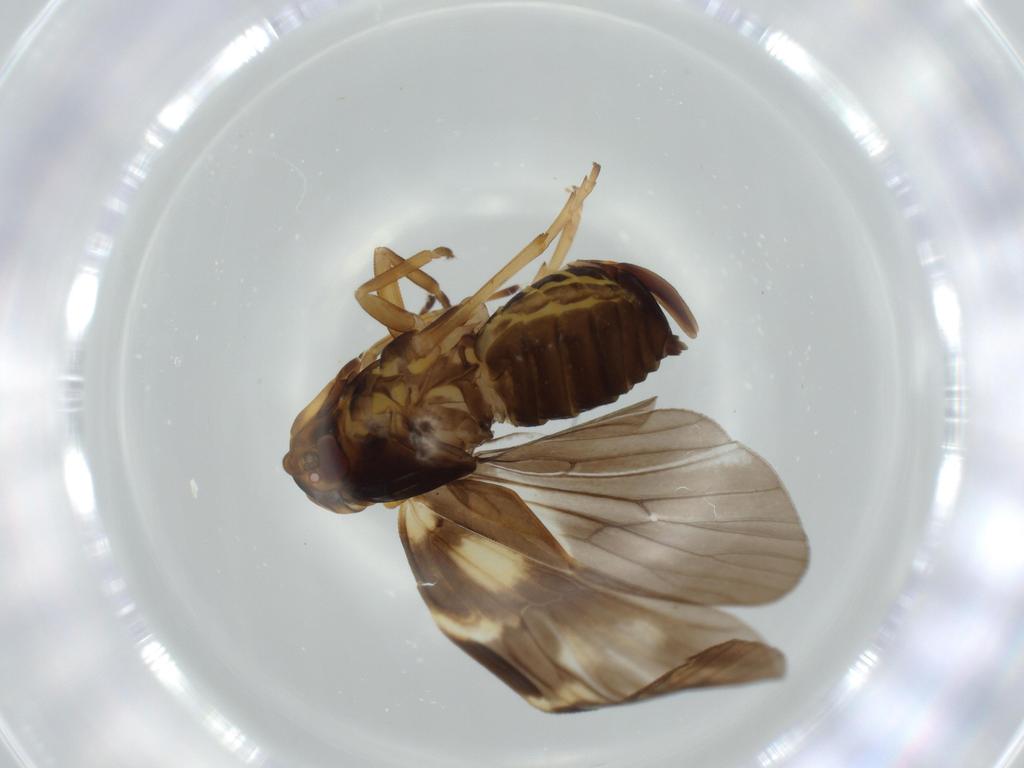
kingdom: Animalia
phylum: Arthropoda
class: Insecta
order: Hemiptera
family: Cixiidae
